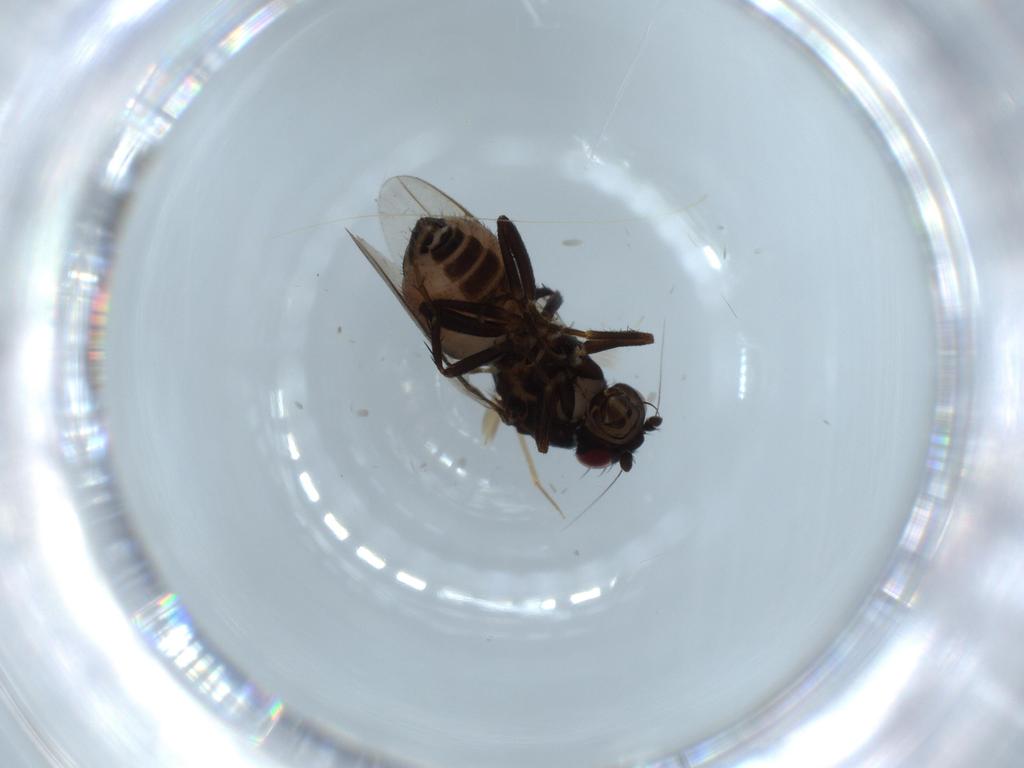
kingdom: Animalia
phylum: Arthropoda
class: Insecta
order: Diptera
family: Sphaeroceridae
